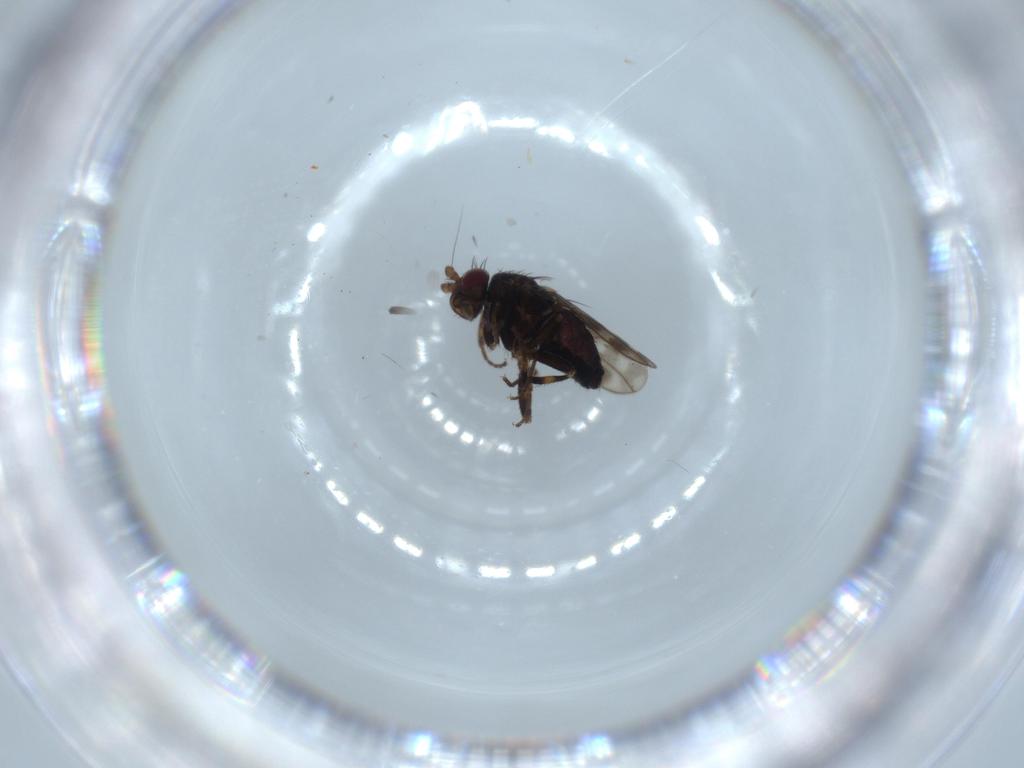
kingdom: Animalia
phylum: Arthropoda
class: Insecta
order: Diptera
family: Sphaeroceridae
